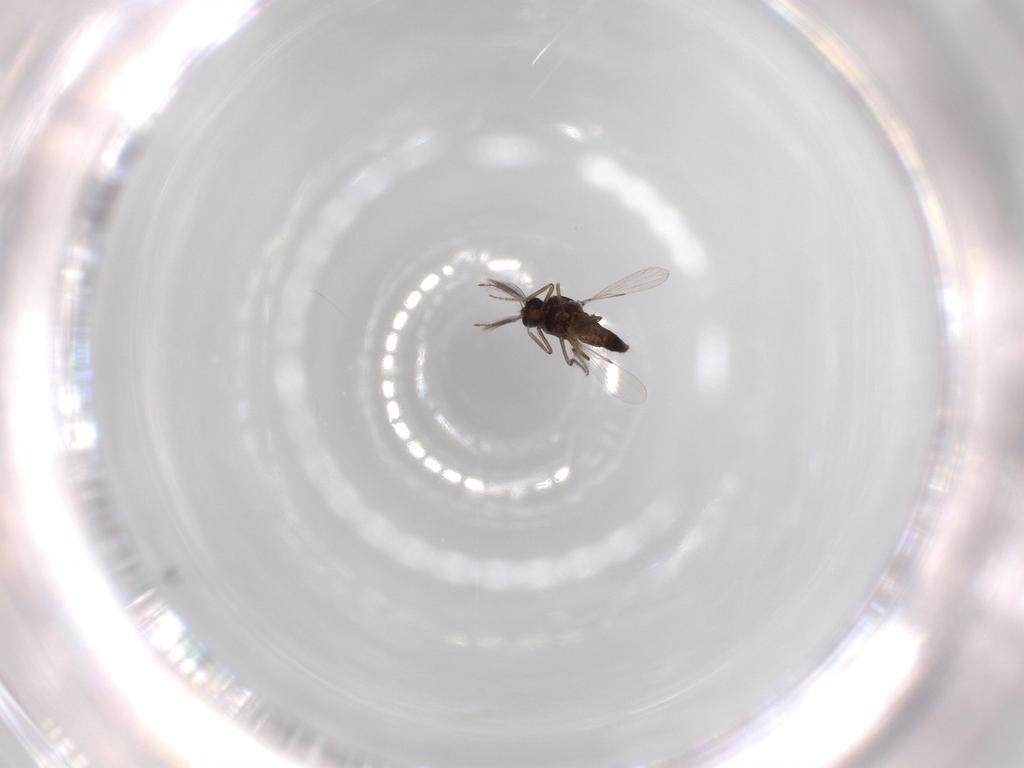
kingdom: Animalia
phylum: Arthropoda
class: Insecta
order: Diptera
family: Ceratopogonidae
